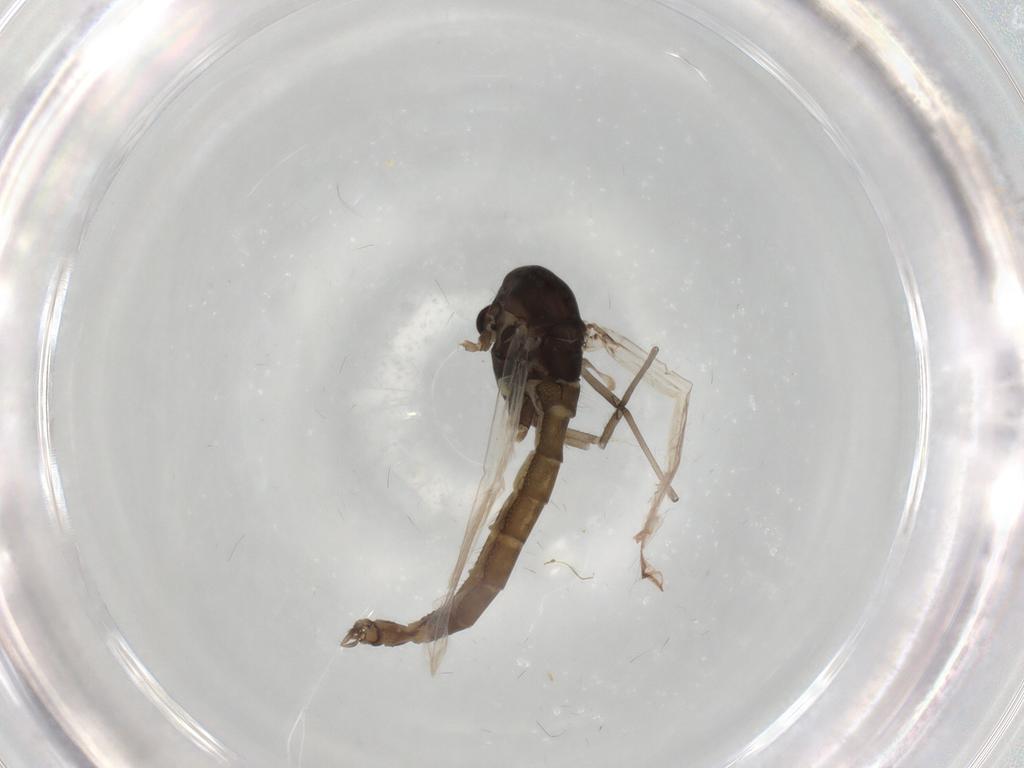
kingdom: Animalia
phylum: Arthropoda
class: Insecta
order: Diptera
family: Chironomidae
